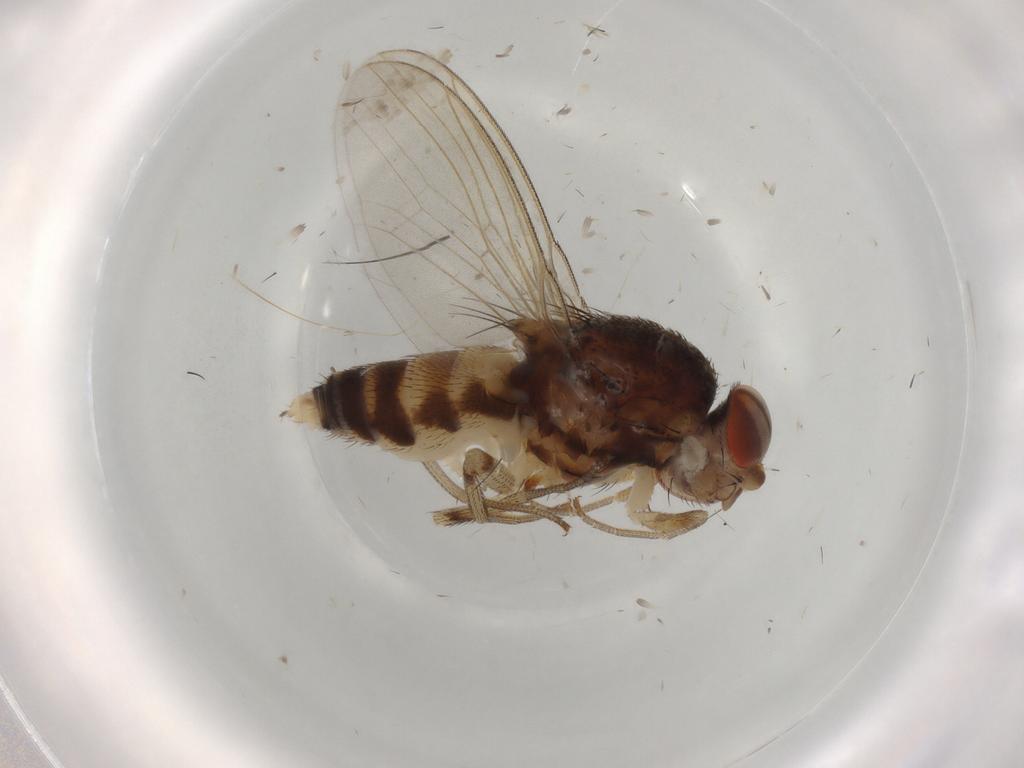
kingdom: Animalia
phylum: Arthropoda
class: Insecta
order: Diptera
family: Drosophilidae
